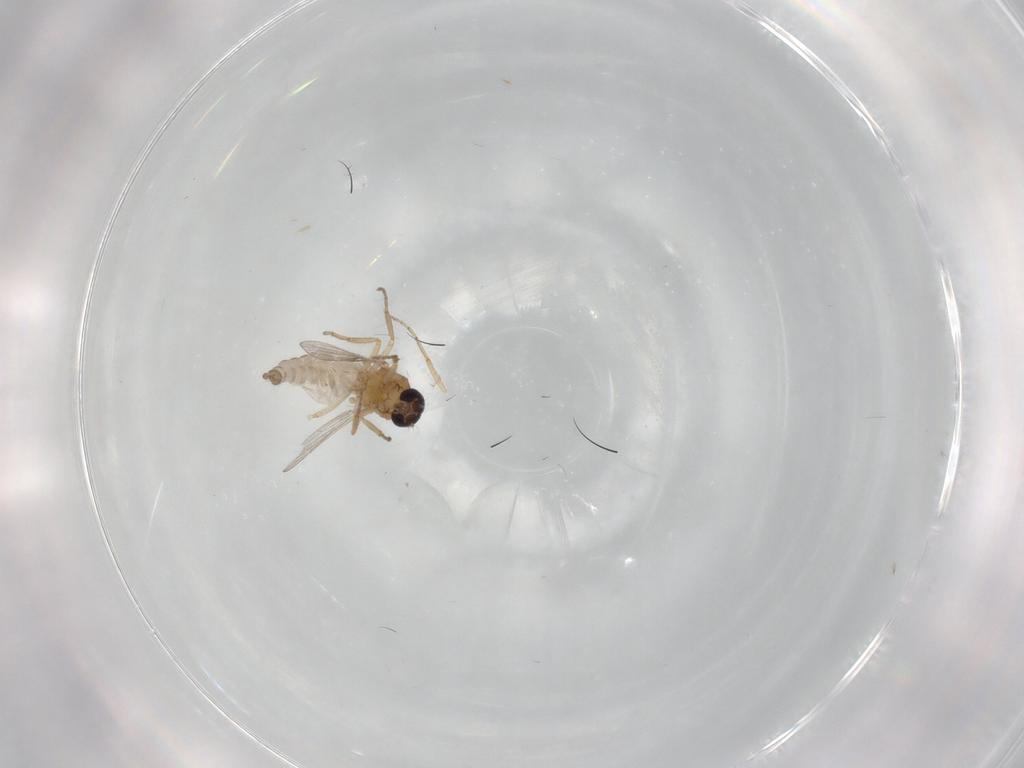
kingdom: Animalia
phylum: Arthropoda
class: Insecta
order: Diptera
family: Ceratopogonidae
